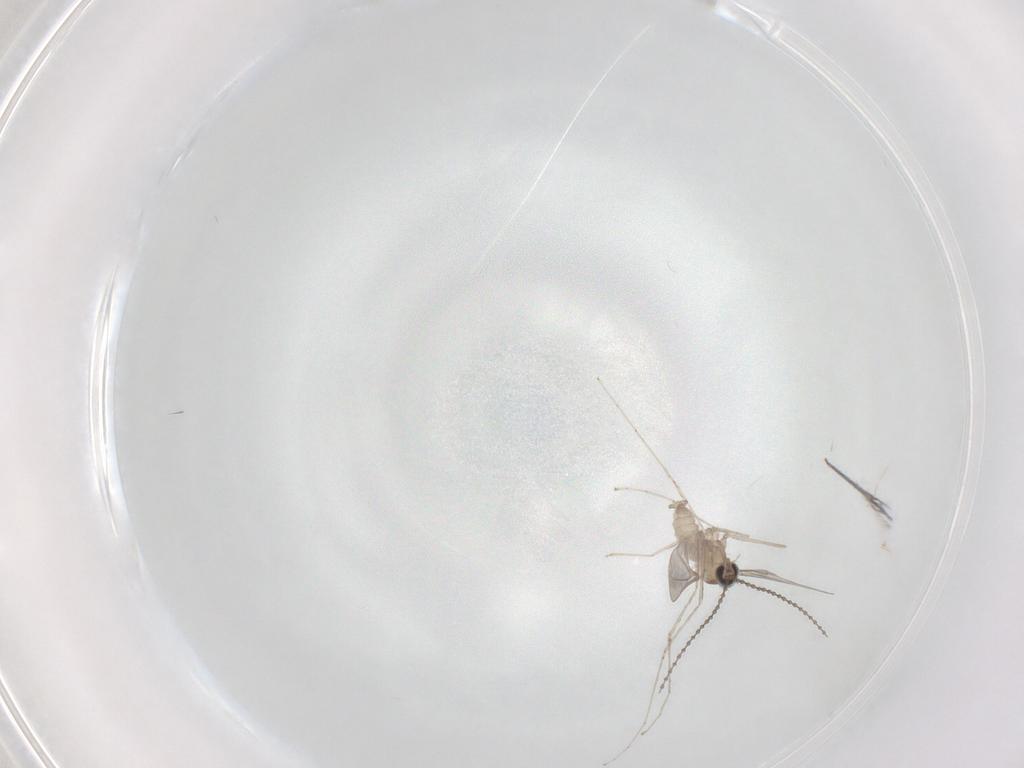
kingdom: Animalia
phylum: Arthropoda
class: Insecta
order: Diptera
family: Cecidomyiidae
